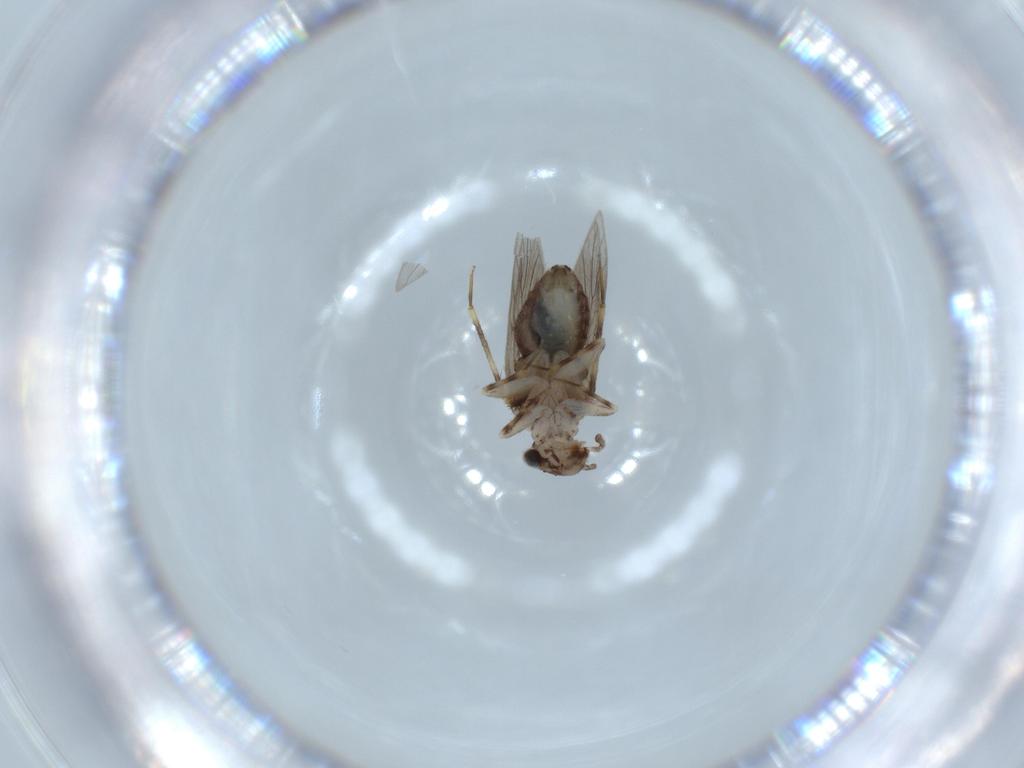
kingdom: Animalia
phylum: Arthropoda
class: Insecta
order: Psocodea
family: Lepidopsocidae
